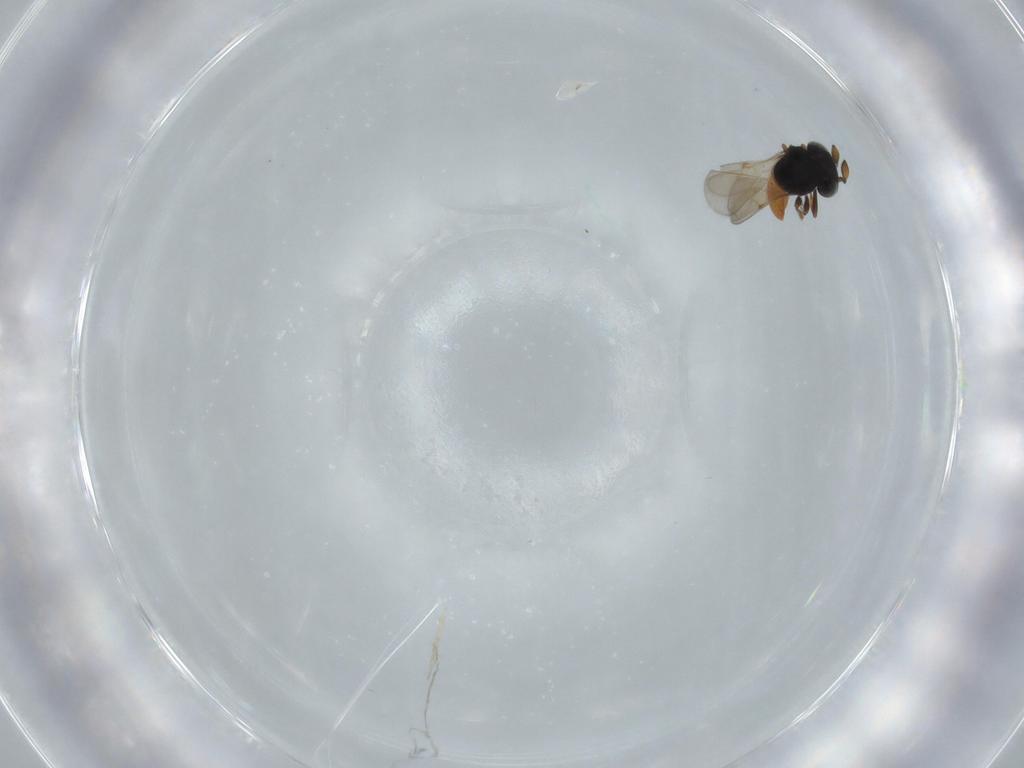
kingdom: Animalia
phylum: Arthropoda
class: Insecta
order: Hymenoptera
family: Scelionidae
